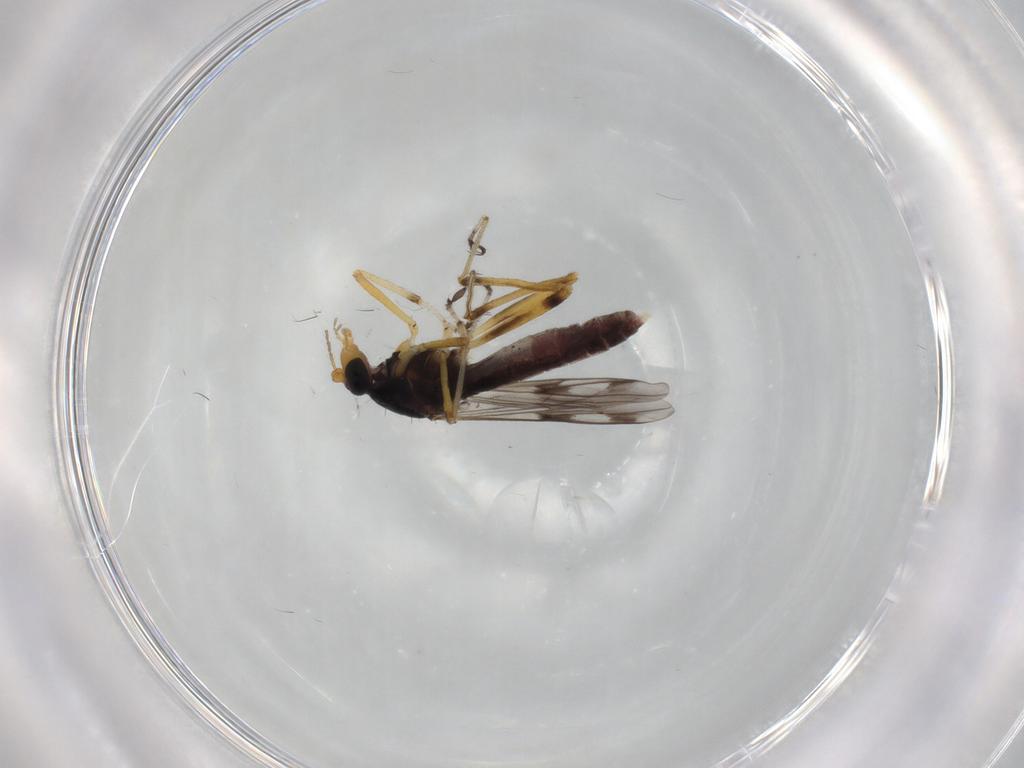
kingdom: Animalia
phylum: Arthropoda
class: Insecta
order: Diptera
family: Ceratopogonidae
